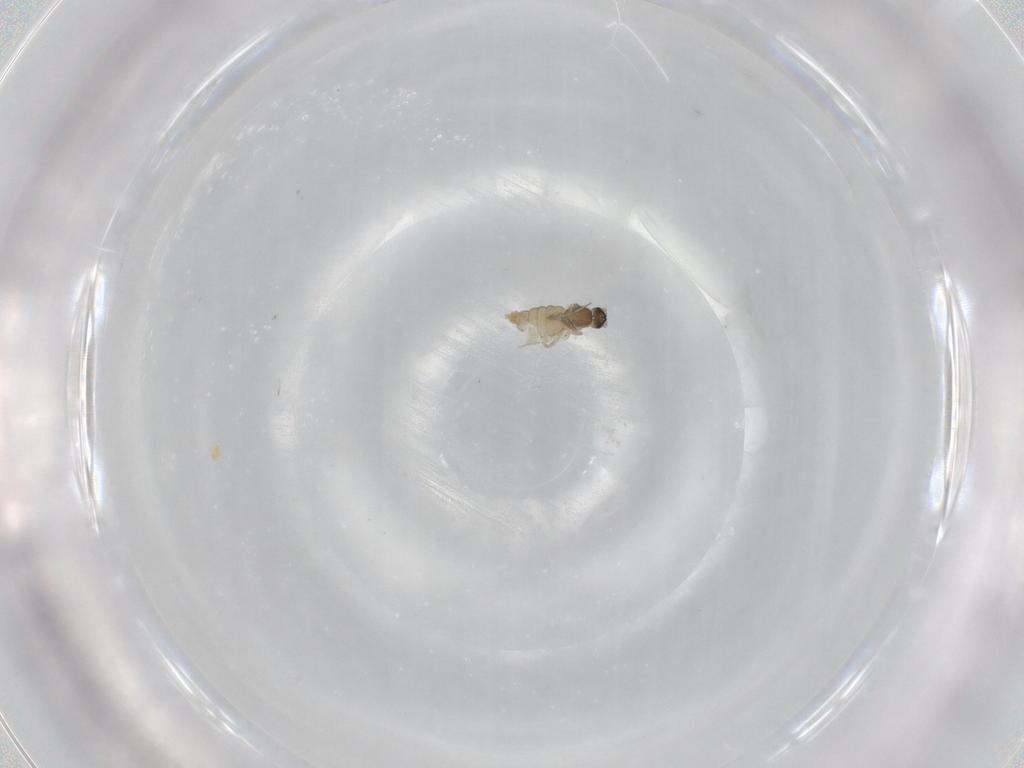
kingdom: Animalia
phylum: Arthropoda
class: Insecta
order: Diptera
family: Cecidomyiidae
